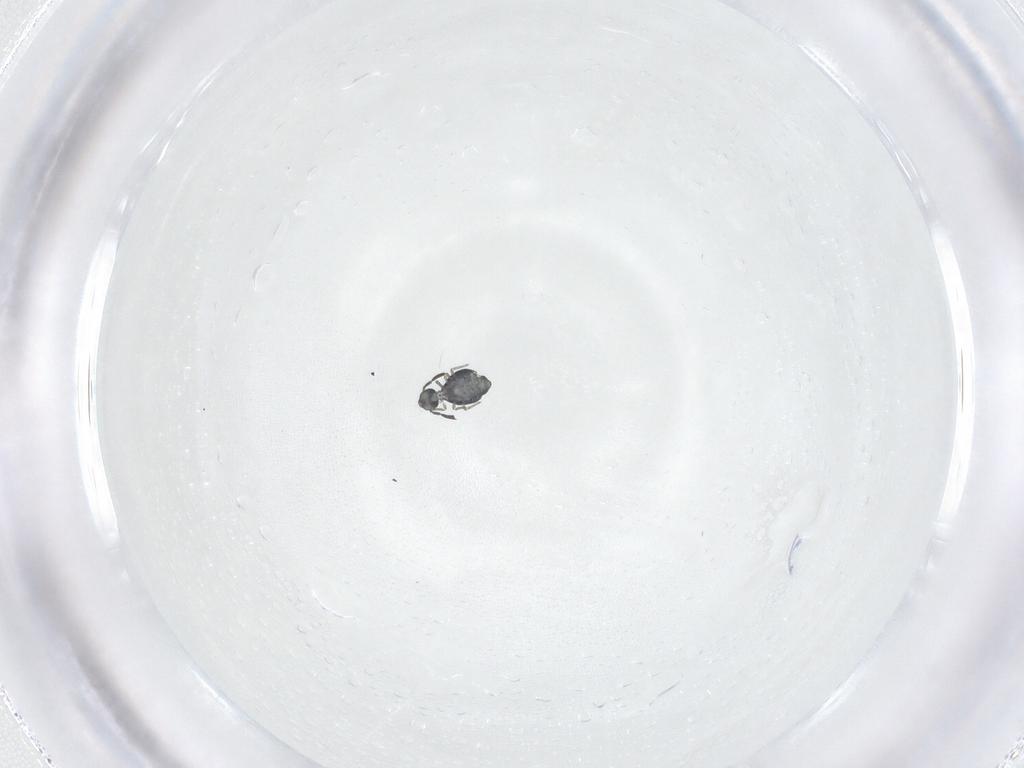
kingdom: Animalia
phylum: Arthropoda
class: Collembola
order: Symphypleona
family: Katiannidae
